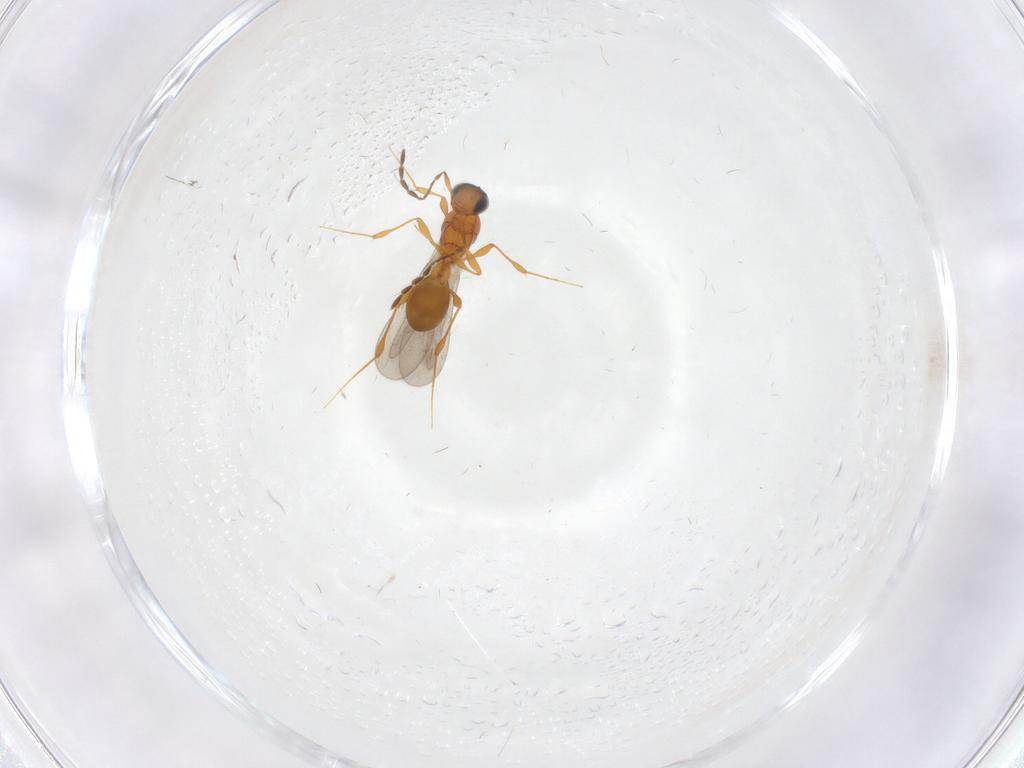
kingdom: Animalia
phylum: Arthropoda
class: Insecta
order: Hymenoptera
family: Platygastridae
